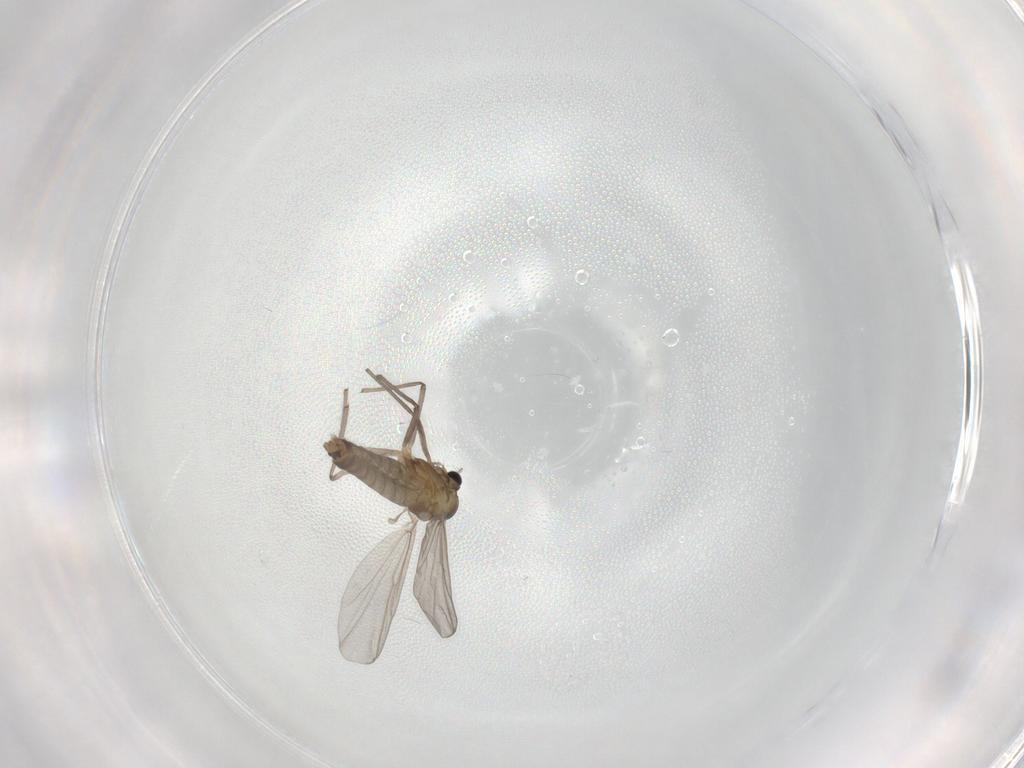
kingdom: Animalia
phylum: Arthropoda
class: Insecta
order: Diptera
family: Chironomidae
